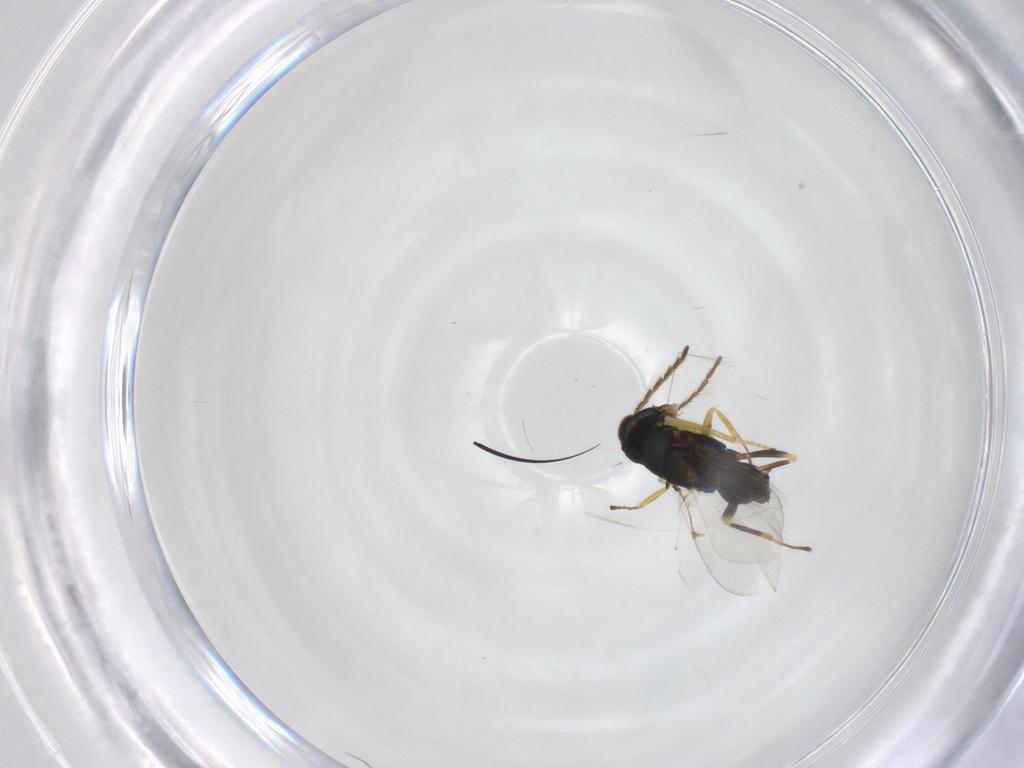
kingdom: Animalia
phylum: Arthropoda
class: Insecta
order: Hymenoptera
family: Encyrtidae
